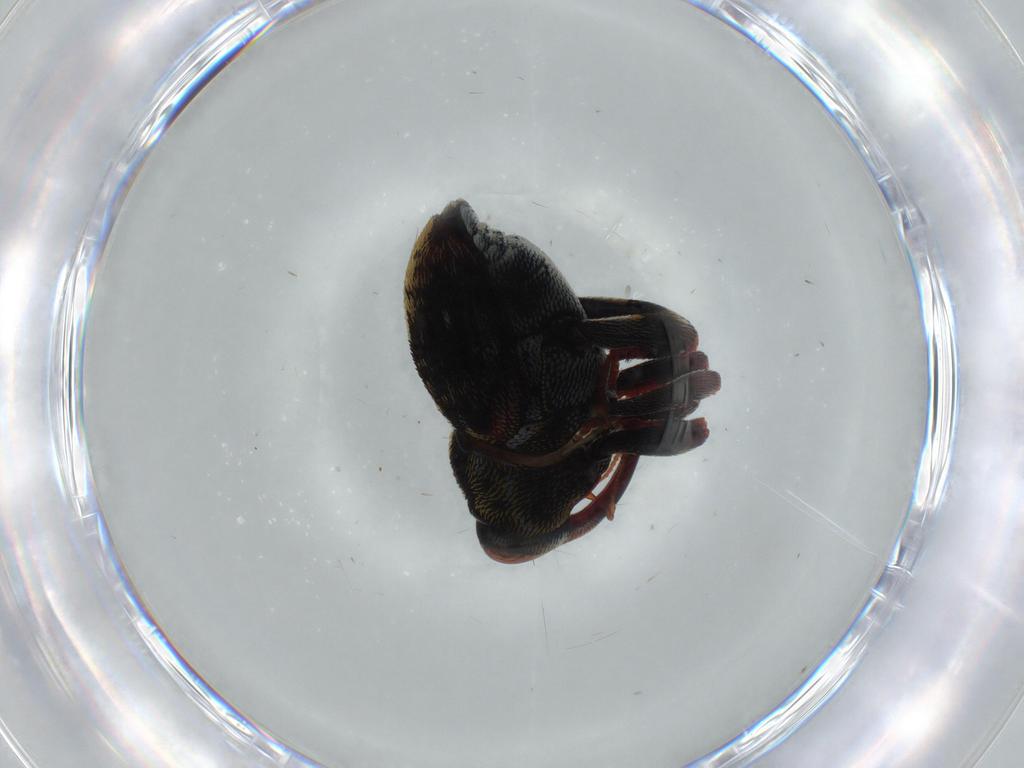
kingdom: Animalia
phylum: Arthropoda
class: Insecta
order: Coleoptera
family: Curculionidae
